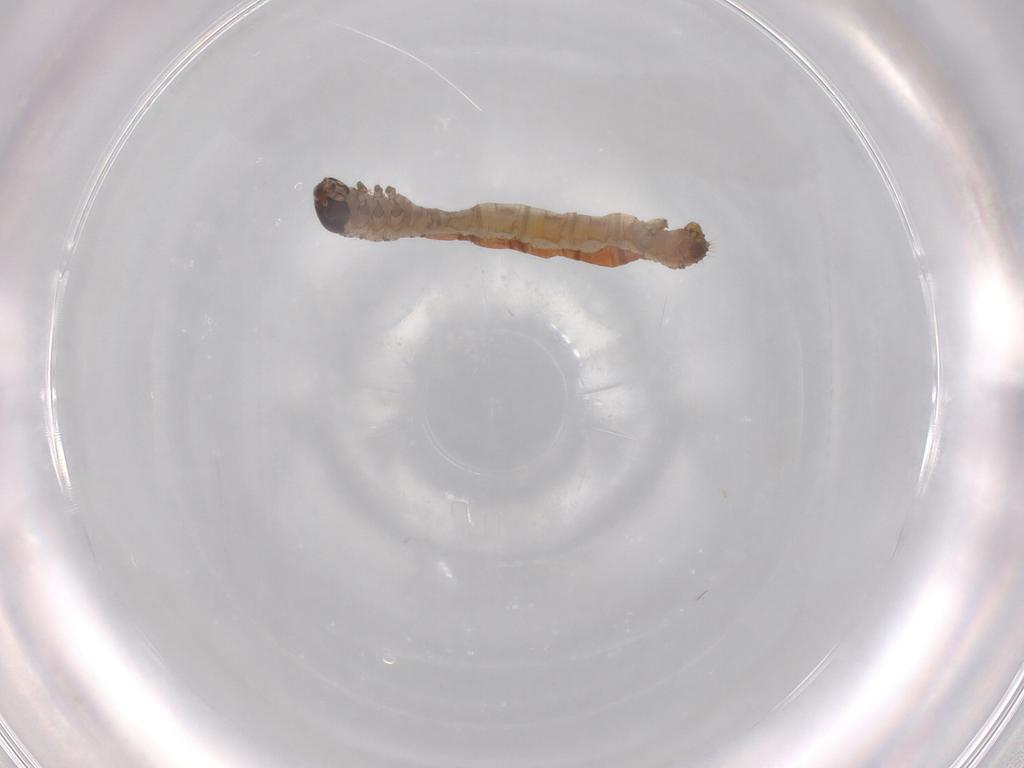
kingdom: Animalia
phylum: Arthropoda
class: Insecta
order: Lepidoptera
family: Geometridae
